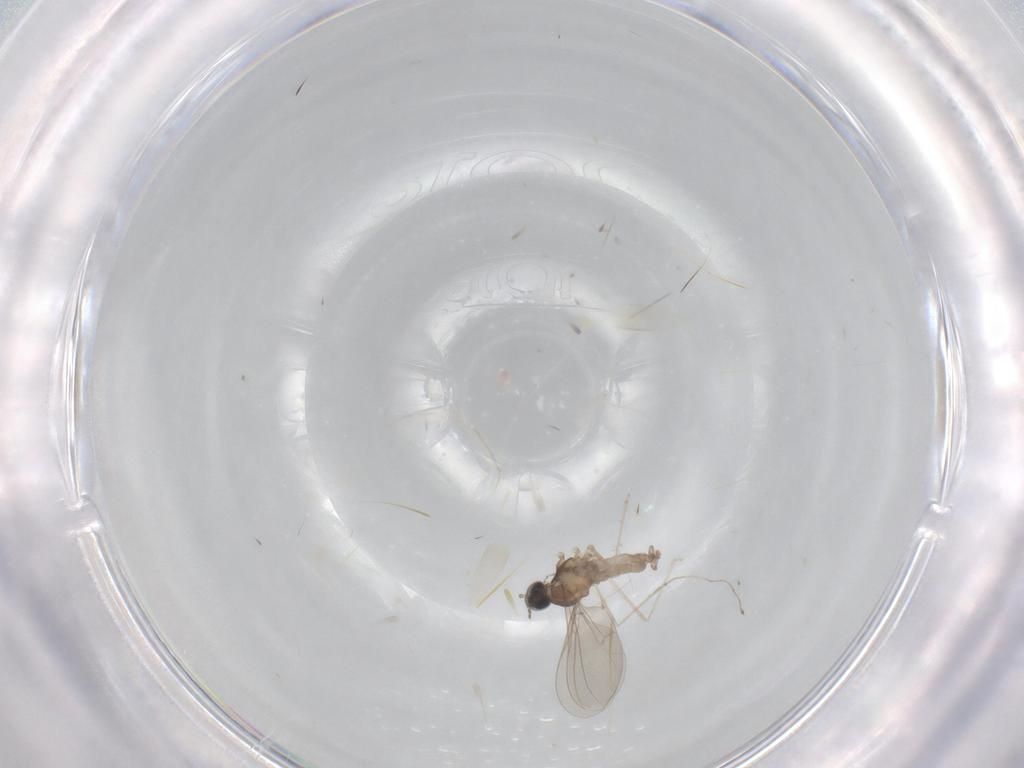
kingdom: Animalia
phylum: Arthropoda
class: Insecta
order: Diptera
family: Cecidomyiidae
